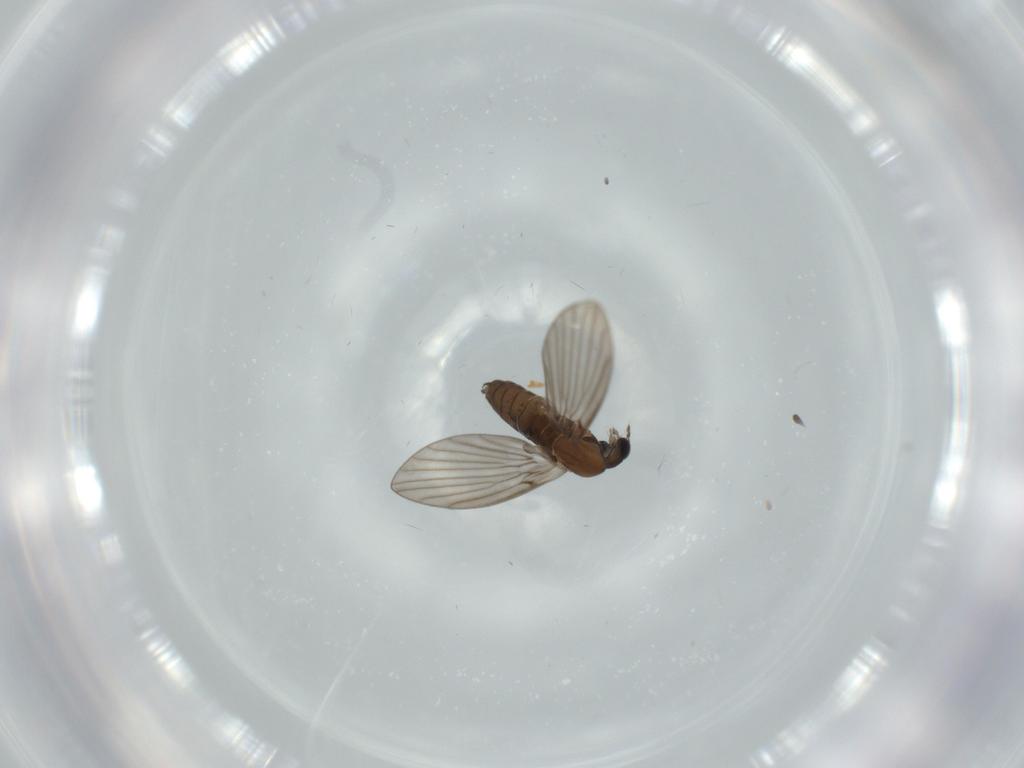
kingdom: Animalia
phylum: Arthropoda
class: Insecta
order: Diptera
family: Psychodidae
